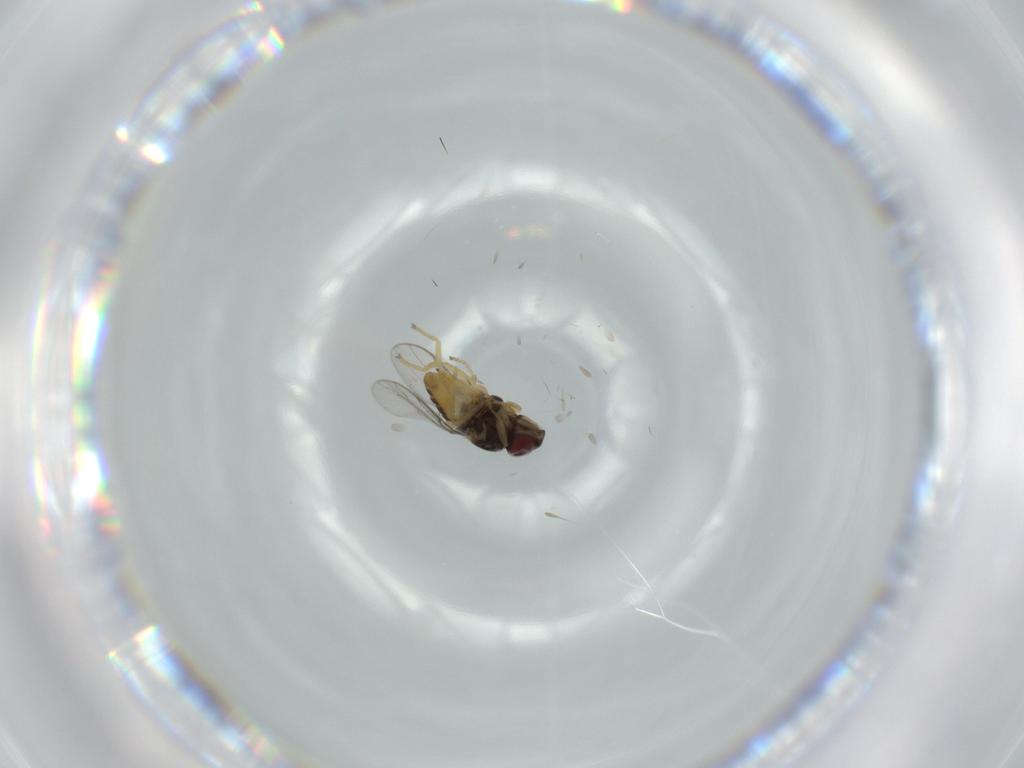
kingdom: Animalia
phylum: Arthropoda
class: Insecta
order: Diptera
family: Chloropidae
